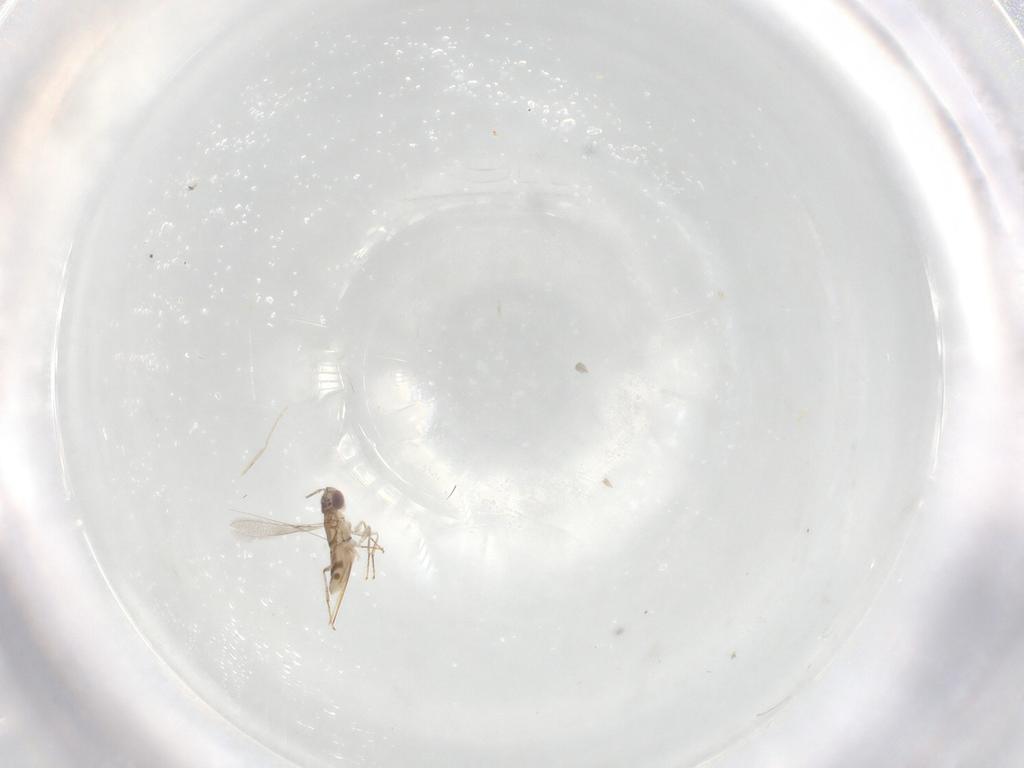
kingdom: Animalia
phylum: Arthropoda
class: Insecta
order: Hymenoptera
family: Mymaridae
